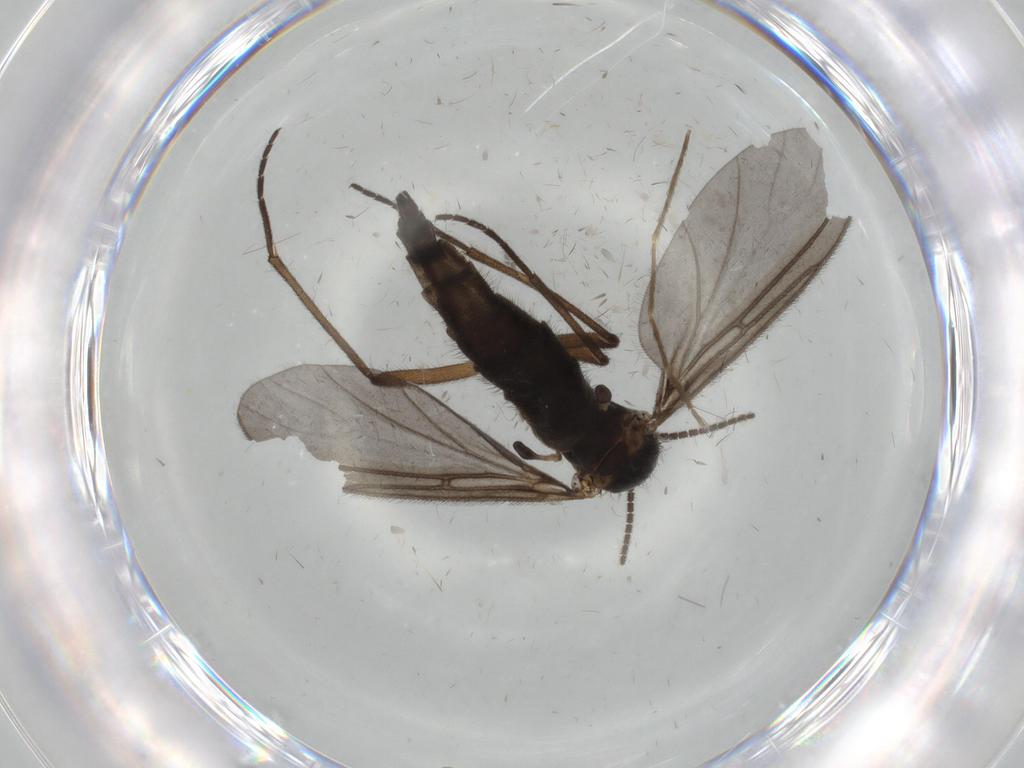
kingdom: Animalia
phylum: Arthropoda
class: Insecta
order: Diptera
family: Sciaridae
